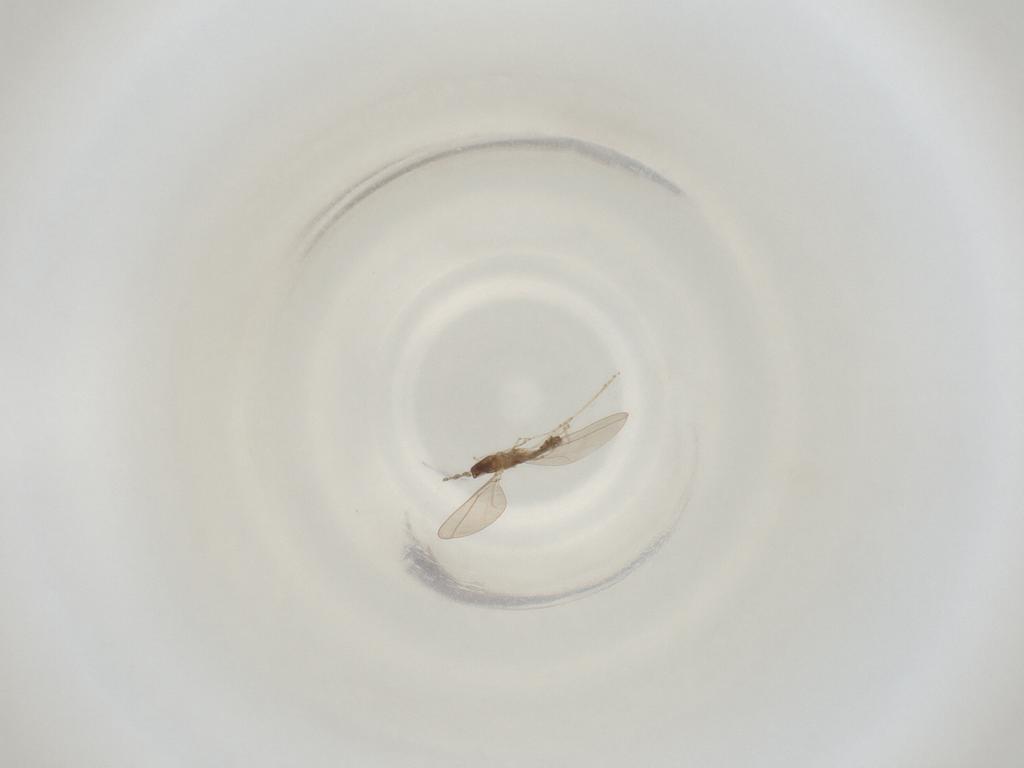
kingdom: Animalia
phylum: Arthropoda
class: Insecta
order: Diptera
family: Cecidomyiidae
